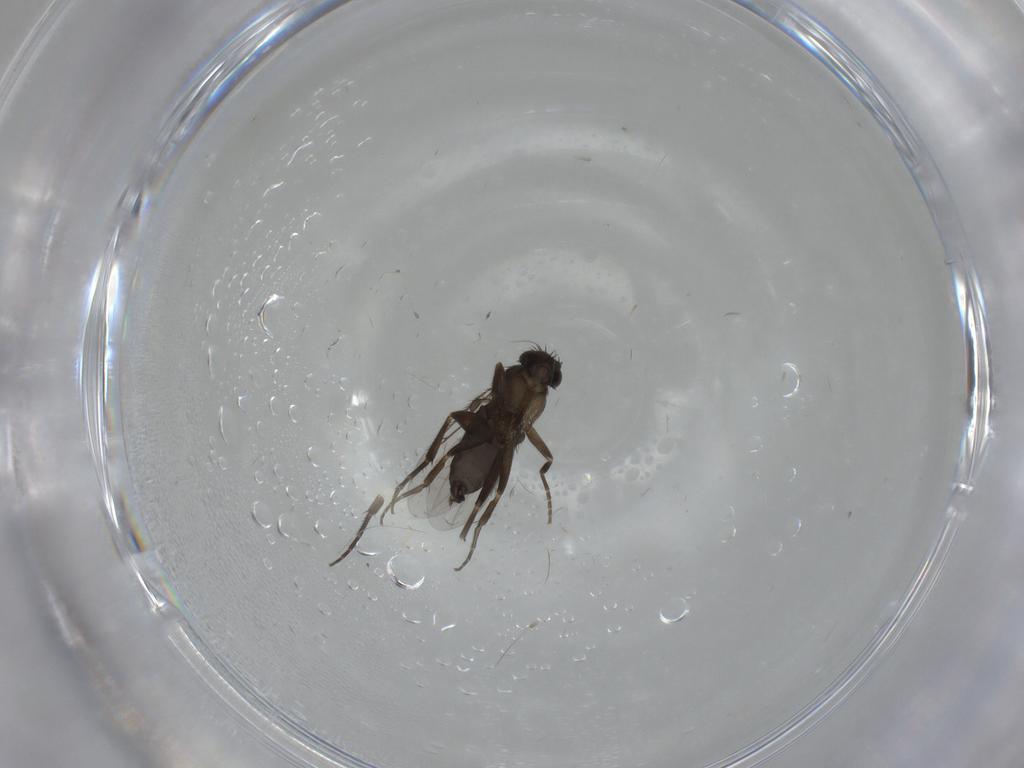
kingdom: Animalia
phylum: Arthropoda
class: Insecta
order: Diptera
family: Phoridae
